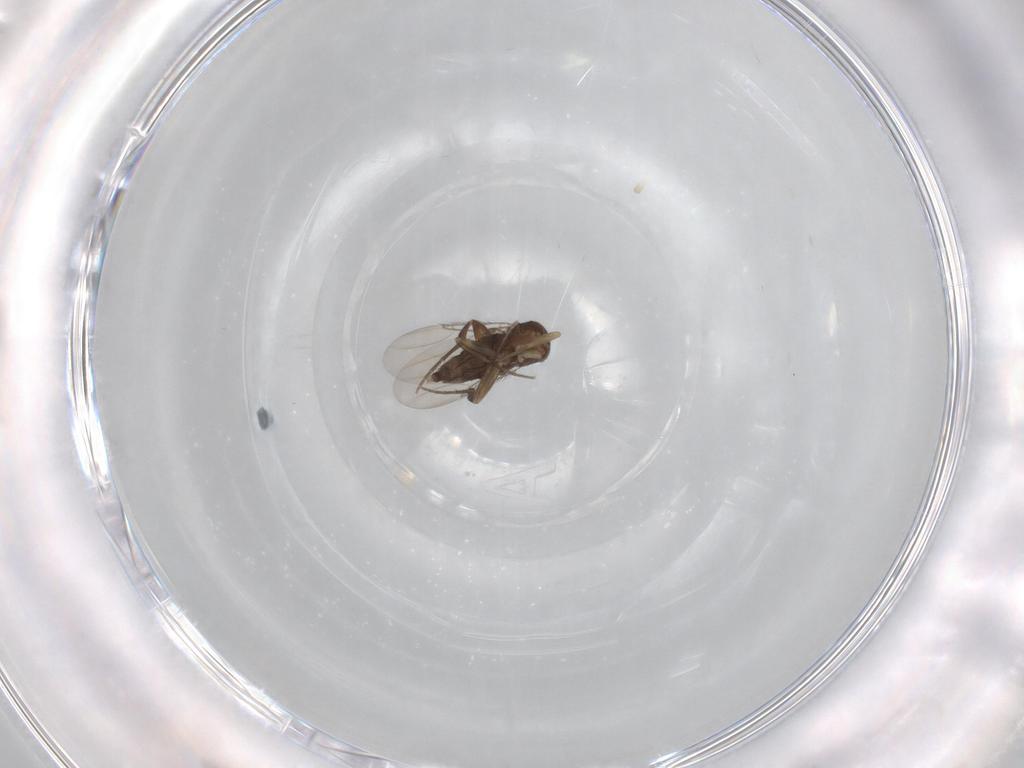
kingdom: Animalia
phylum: Arthropoda
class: Insecta
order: Diptera
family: Phoridae
